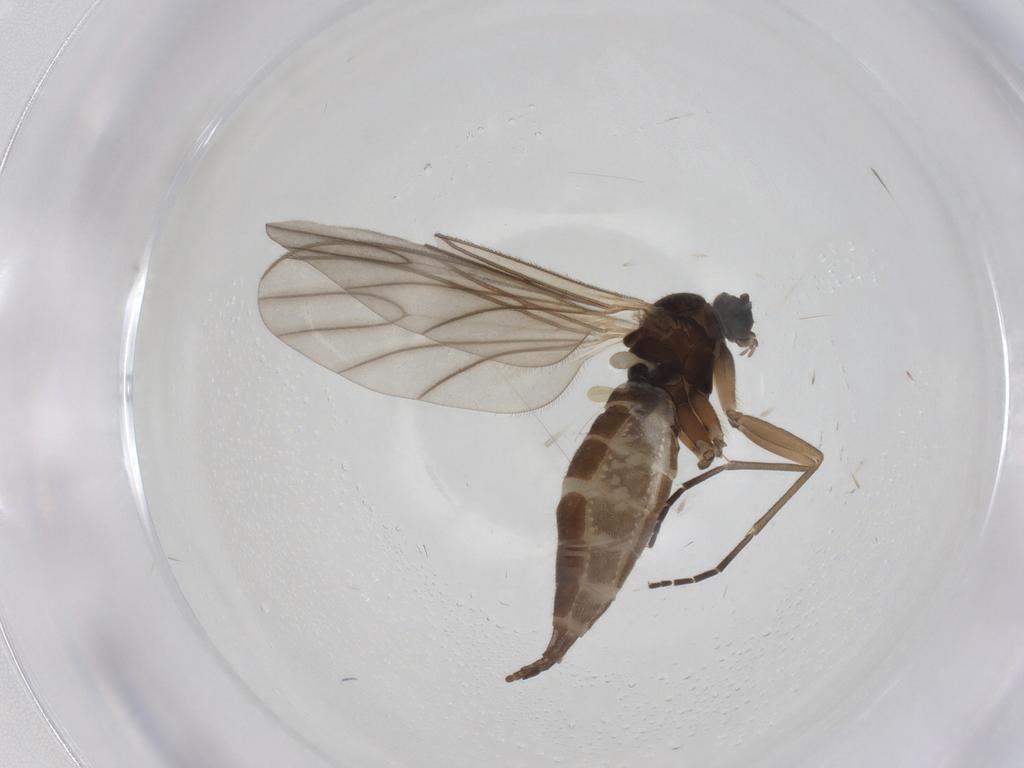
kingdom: Animalia
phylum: Arthropoda
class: Insecta
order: Diptera
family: Sciaridae
